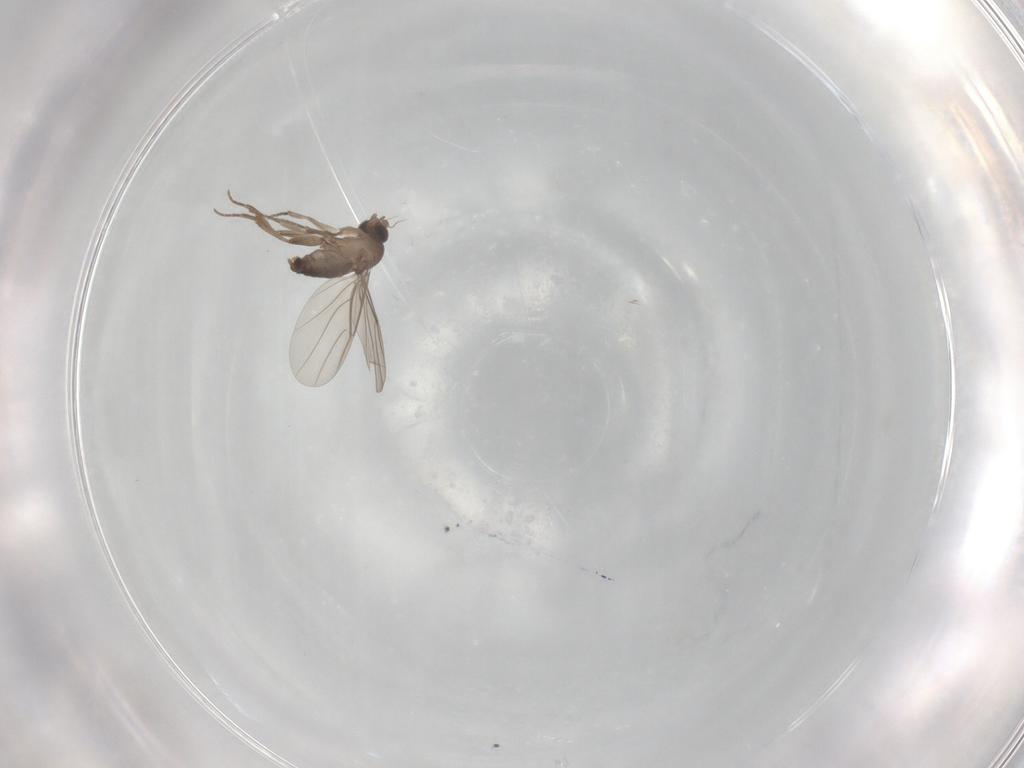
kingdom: Animalia
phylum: Arthropoda
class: Insecta
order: Diptera
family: Phoridae
